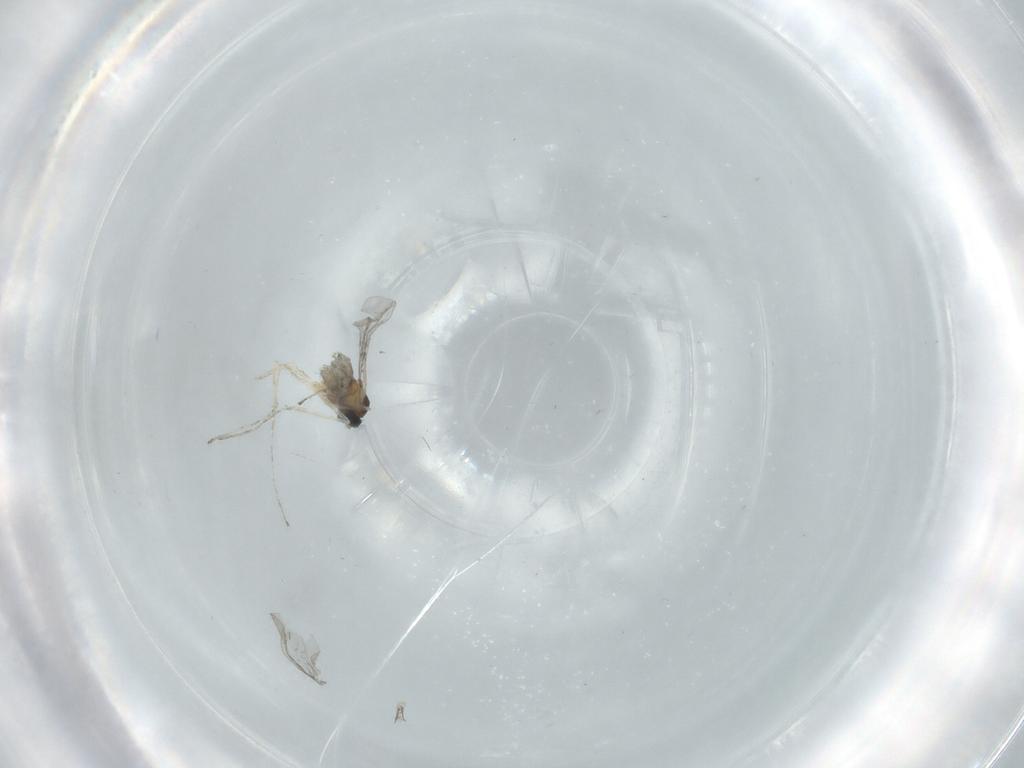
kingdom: Animalia
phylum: Arthropoda
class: Insecta
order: Diptera
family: Cecidomyiidae
